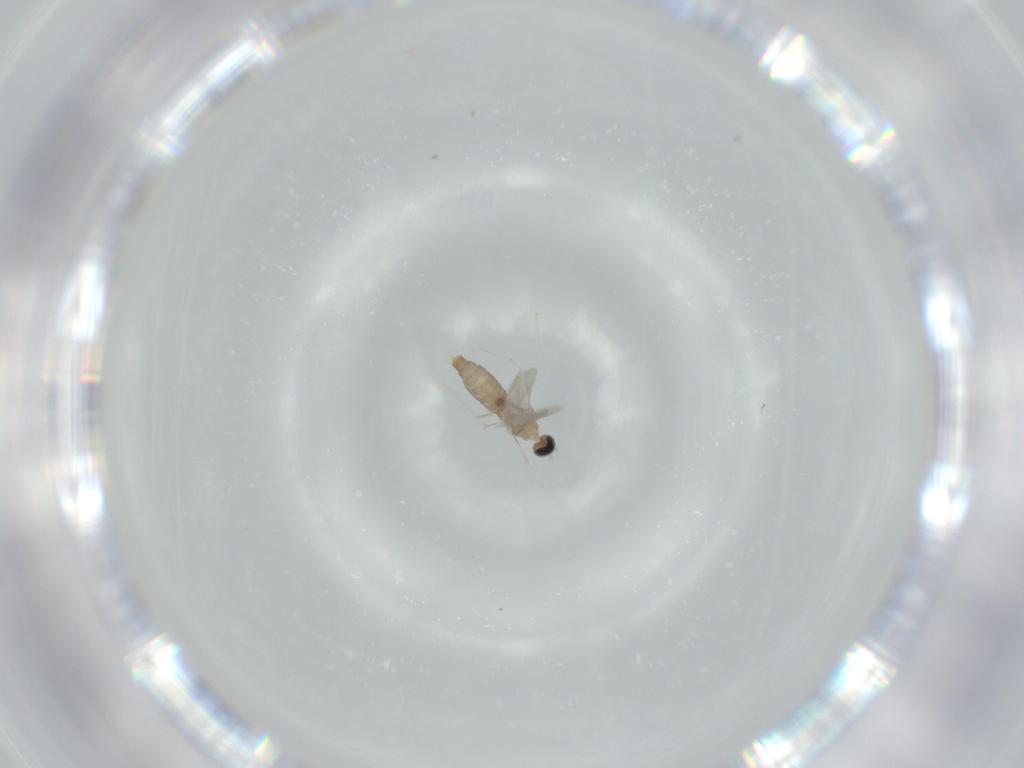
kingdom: Animalia
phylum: Arthropoda
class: Insecta
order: Diptera
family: Cecidomyiidae
